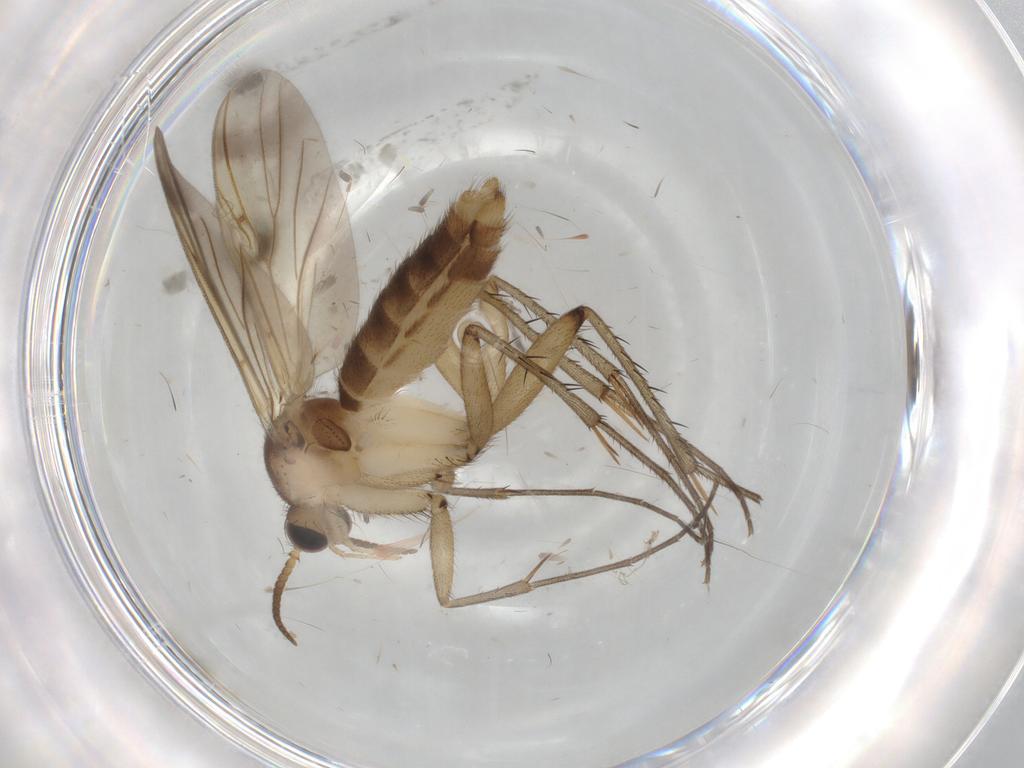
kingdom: Animalia
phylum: Arthropoda
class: Insecta
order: Diptera
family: Mycetophilidae
